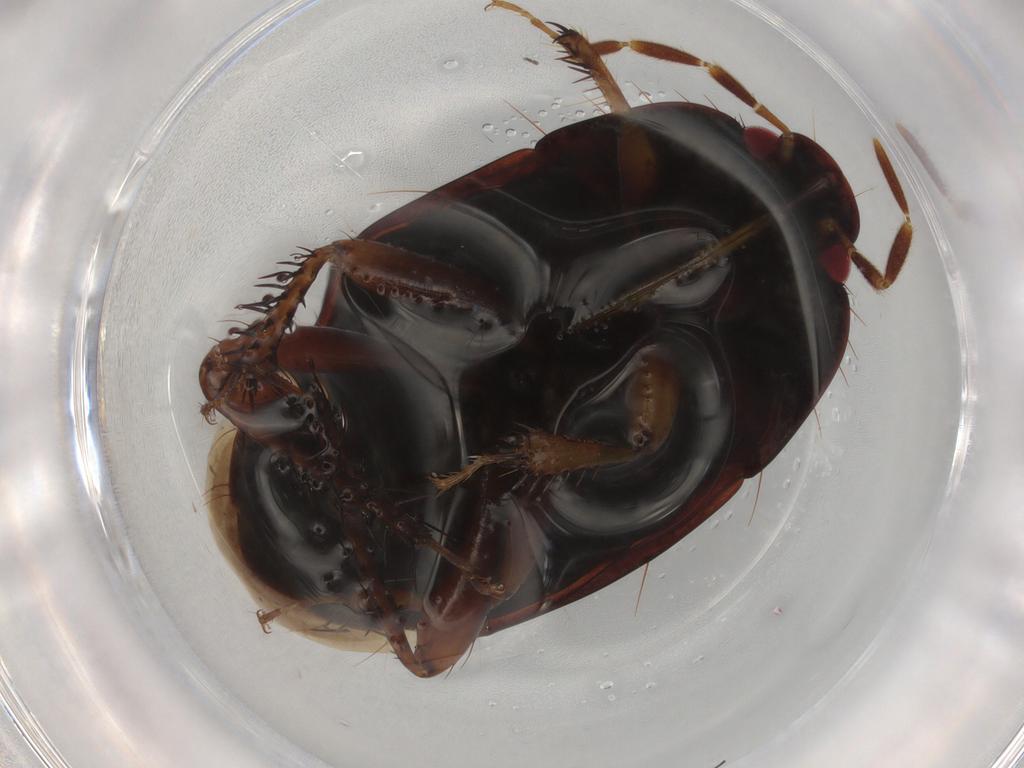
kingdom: Animalia
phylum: Arthropoda
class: Insecta
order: Hemiptera
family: Cydnidae
